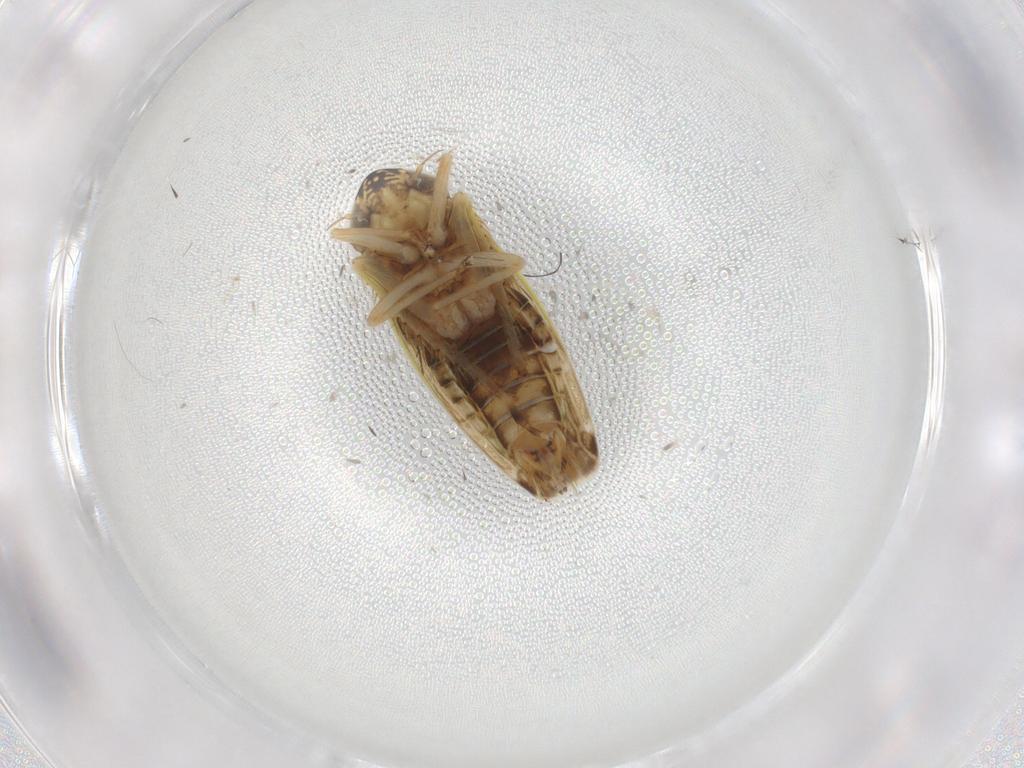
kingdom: Animalia
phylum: Arthropoda
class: Insecta
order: Hemiptera
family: Cicadellidae
